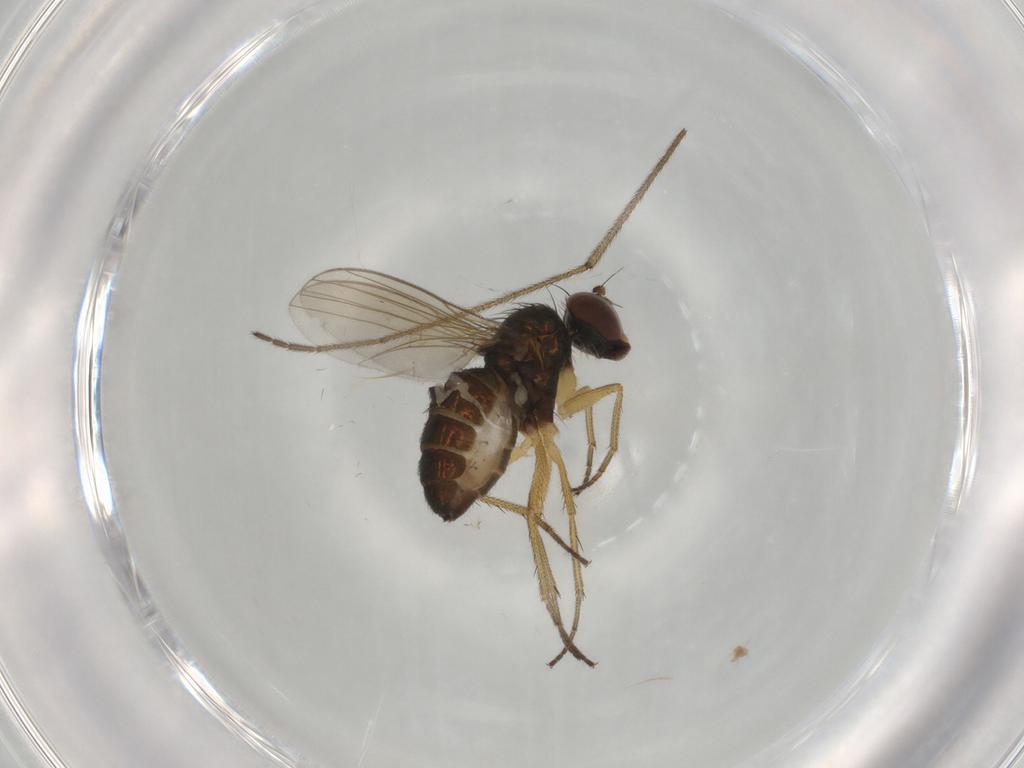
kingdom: Animalia
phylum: Arthropoda
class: Insecta
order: Diptera
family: Dolichopodidae
